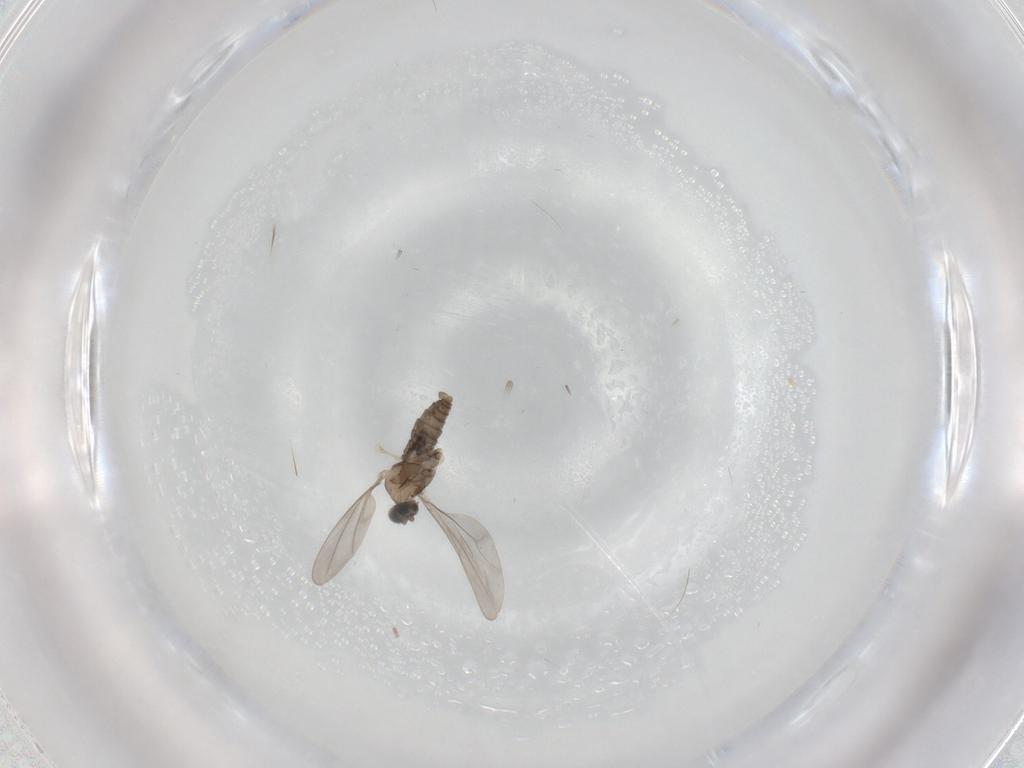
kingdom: Animalia
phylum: Arthropoda
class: Insecta
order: Diptera
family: Cecidomyiidae
